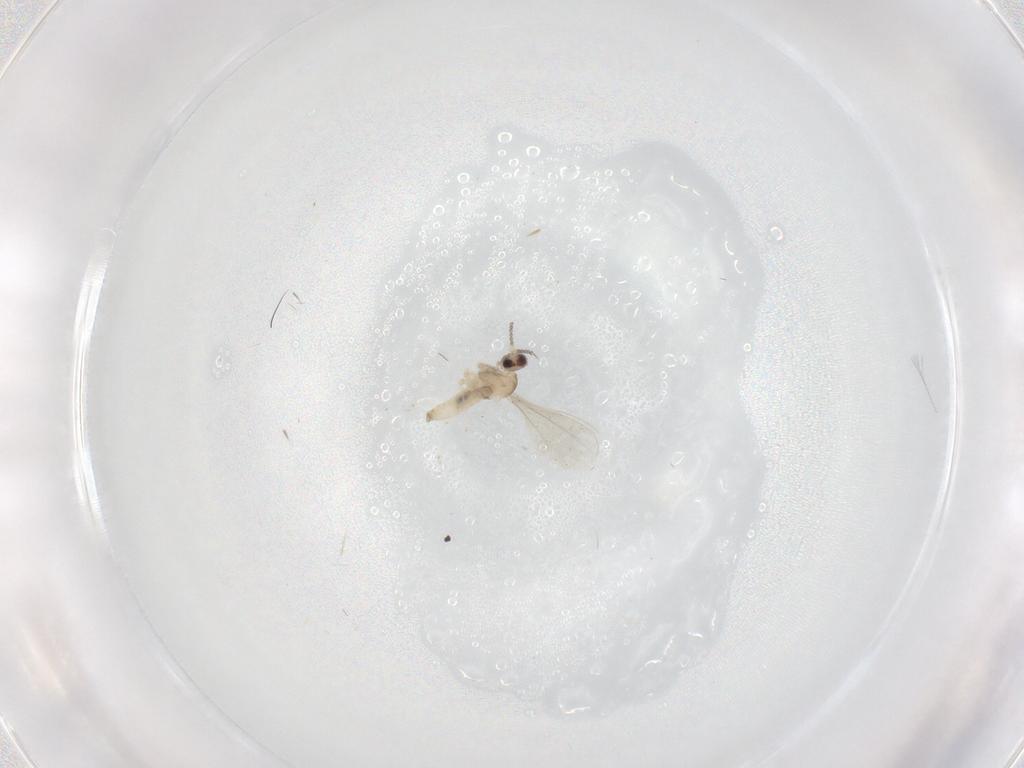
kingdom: Animalia
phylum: Arthropoda
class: Insecta
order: Diptera
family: Cecidomyiidae
